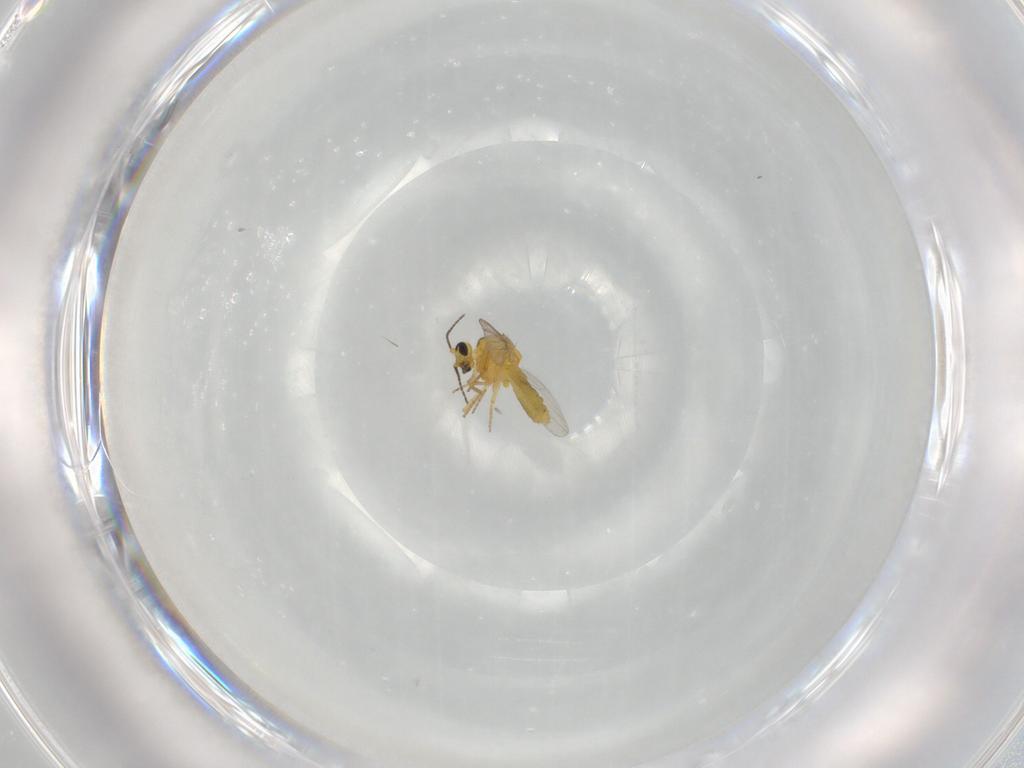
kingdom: Animalia
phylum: Arthropoda
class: Insecta
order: Diptera
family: Ceratopogonidae
